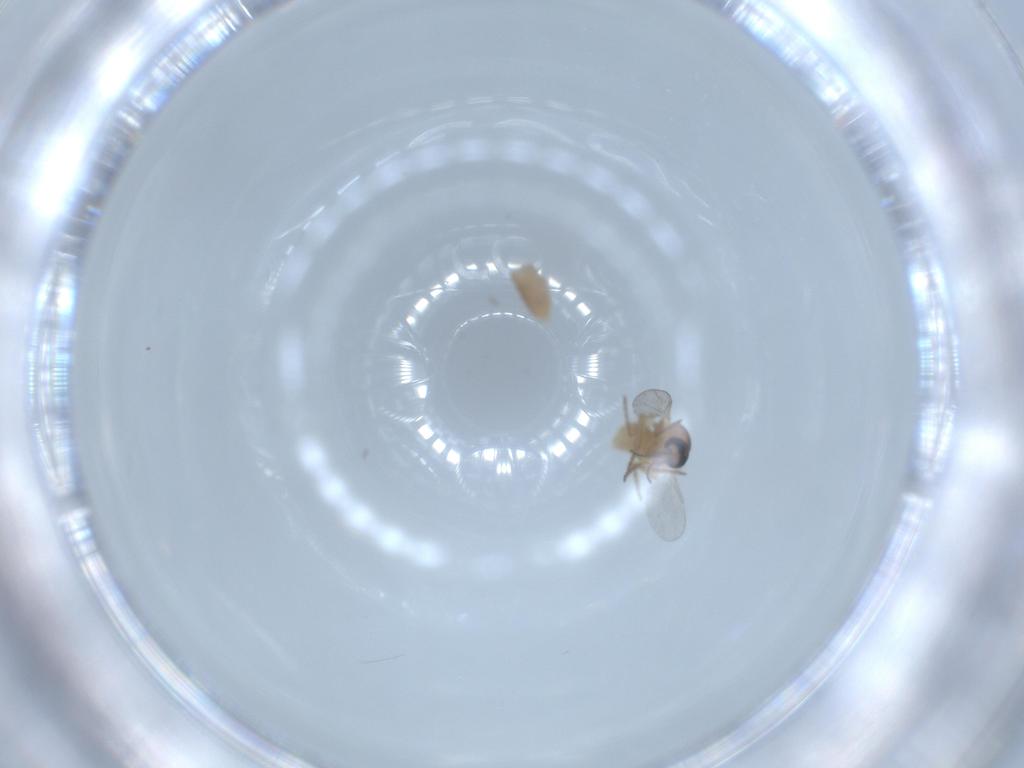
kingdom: Animalia
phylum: Arthropoda
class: Insecta
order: Diptera
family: Ceratopogonidae
